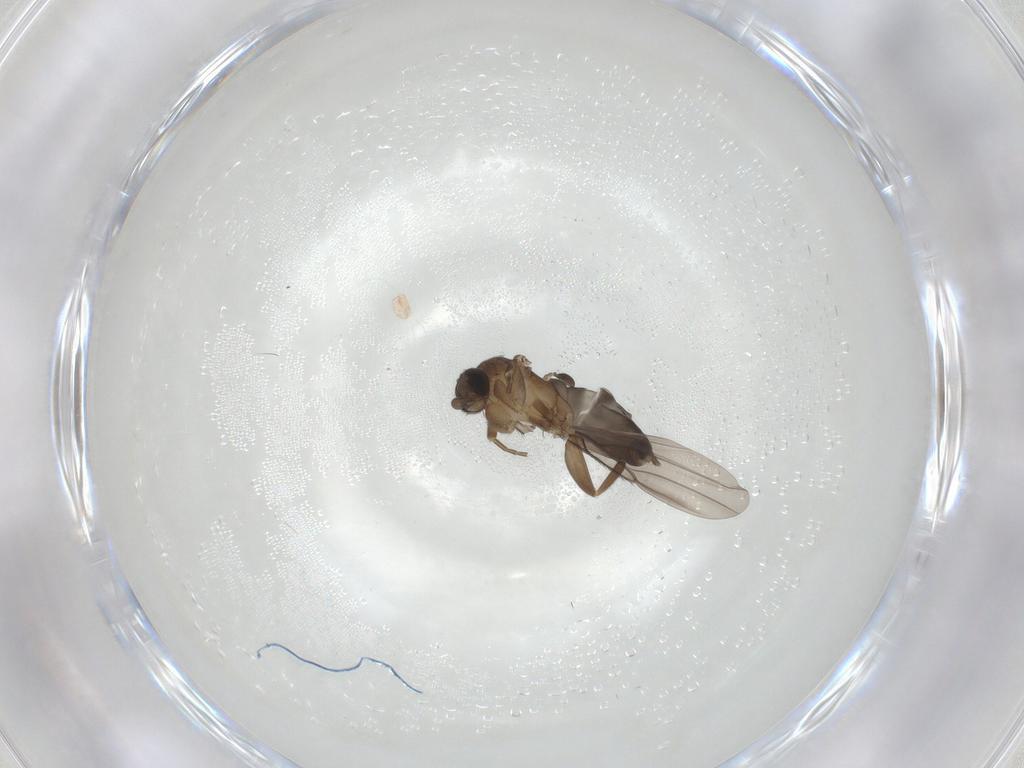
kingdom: Animalia
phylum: Arthropoda
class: Insecta
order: Diptera
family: Phoridae
